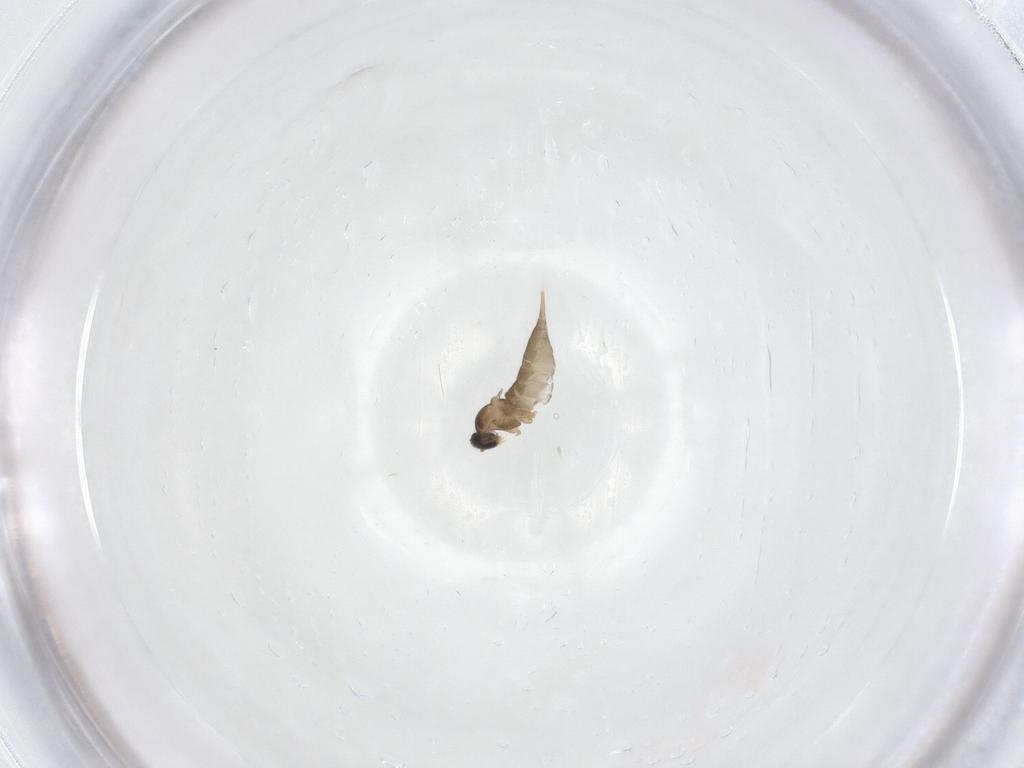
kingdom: Animalia
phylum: Arthropoda
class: Insecta
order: Diptera
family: Cecidomyiidae
